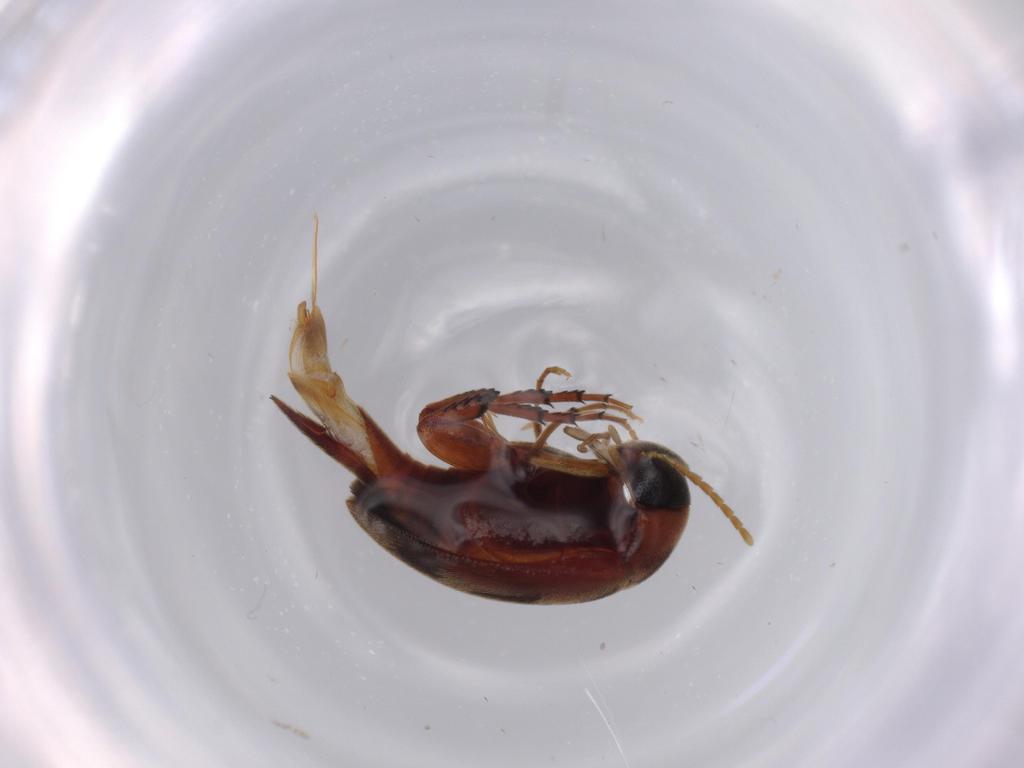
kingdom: Animalia
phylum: Arthropoda
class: Insecta
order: Coleoptera
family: Mordellidae
